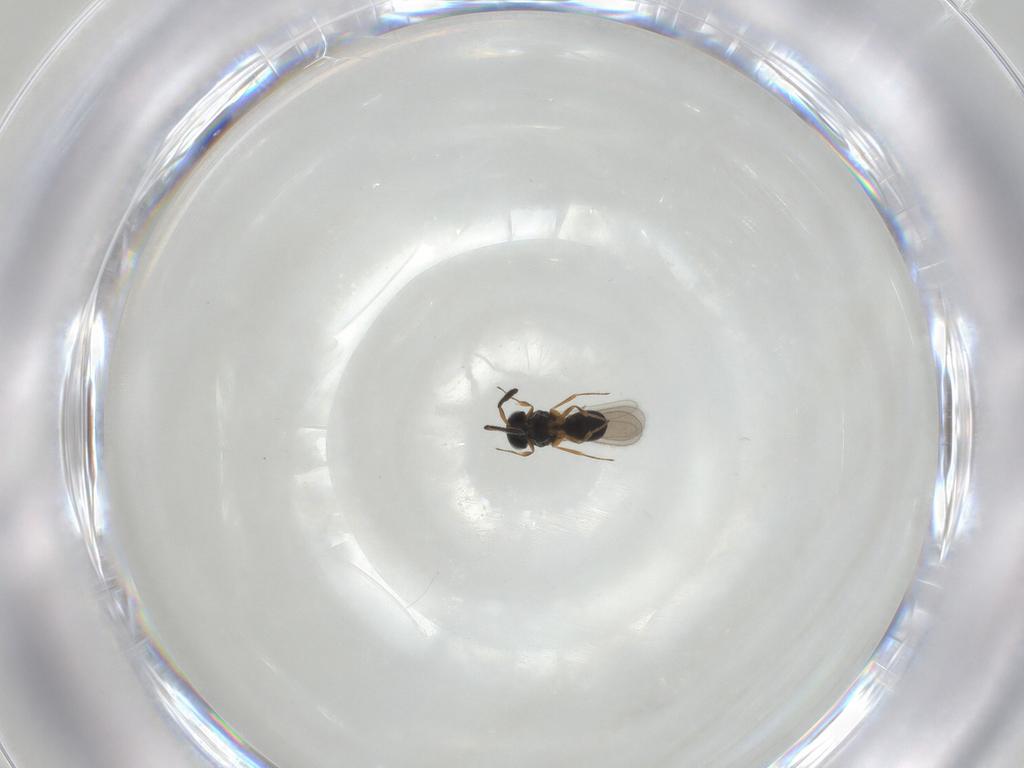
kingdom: Animalia
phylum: Arthropoda
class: Insecta
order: Hymenoptera
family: Scelionidae
